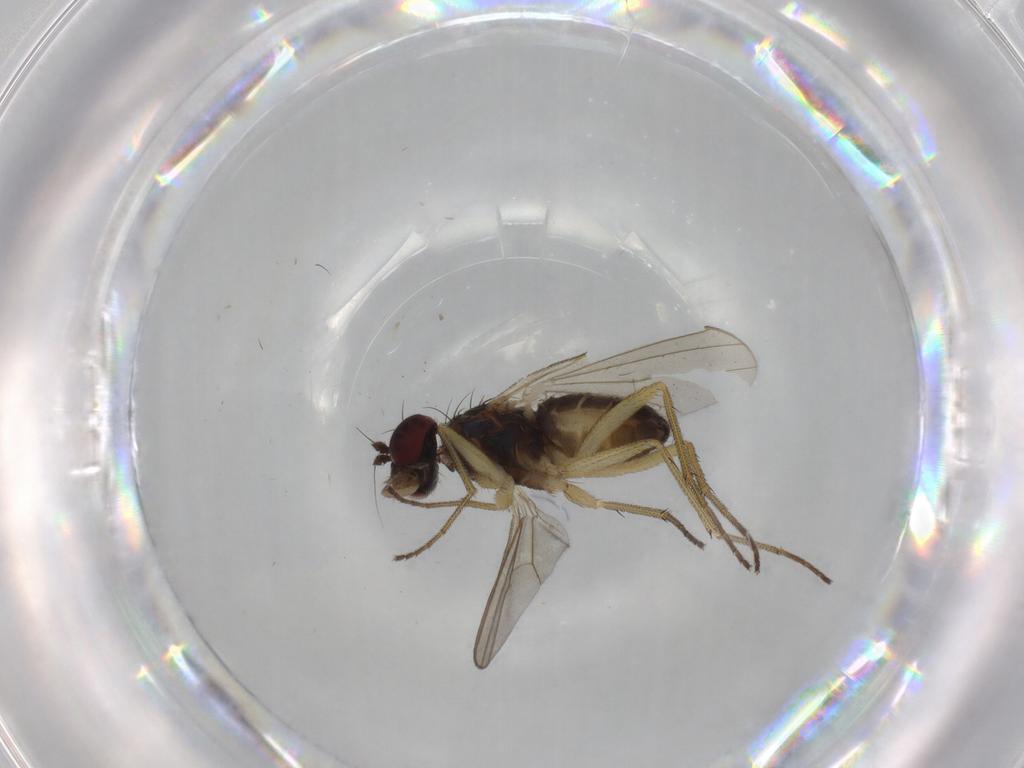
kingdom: Animalia
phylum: Arthropoda
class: Insecta
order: Diptera
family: Dolichopodidae
